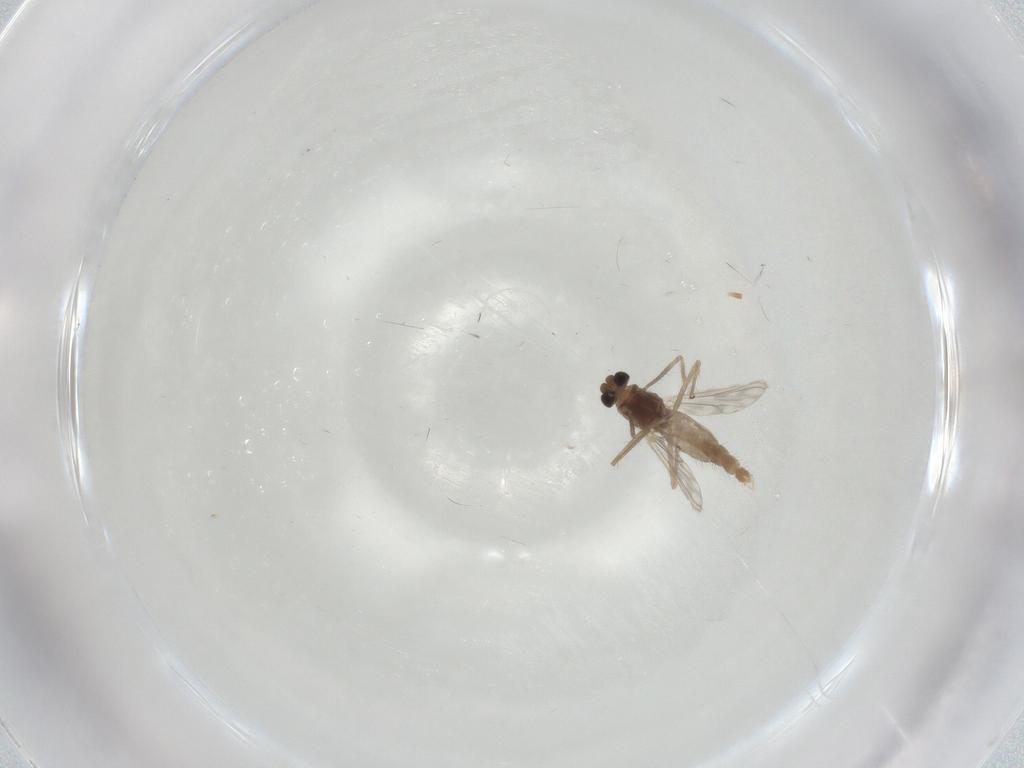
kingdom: Animalia
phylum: Arthropoda
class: Insecta
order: Diptera
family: Chironomidae
